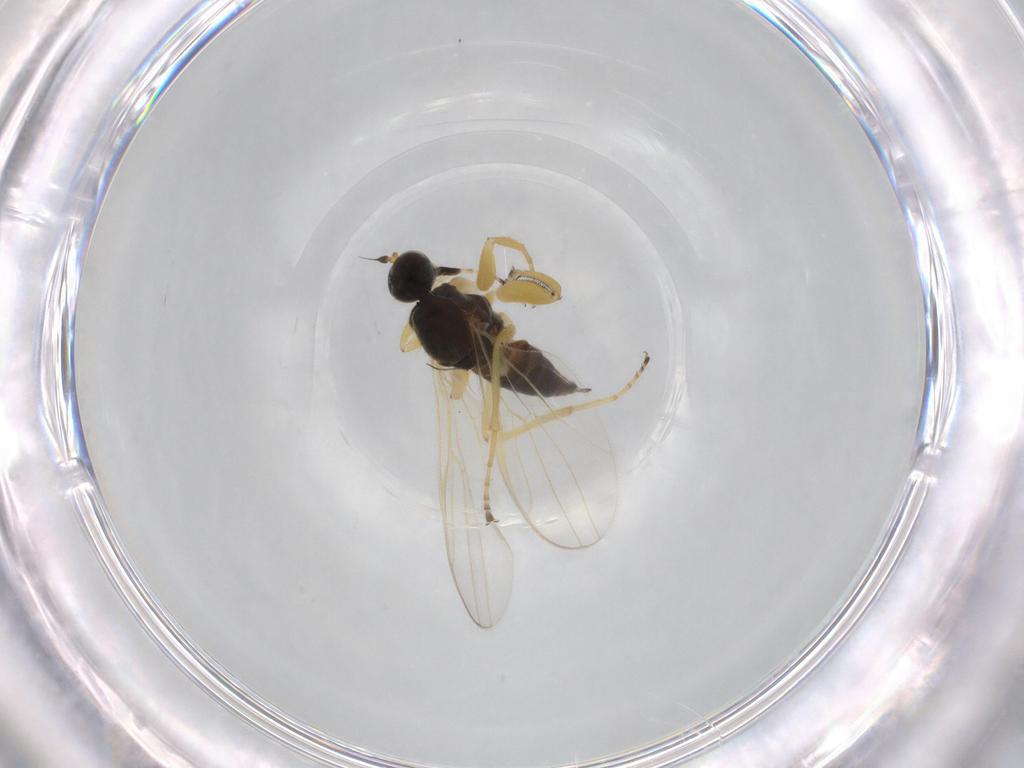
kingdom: Animalia
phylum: Arthropoda
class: Insecta
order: Diptera
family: Hybotidae
